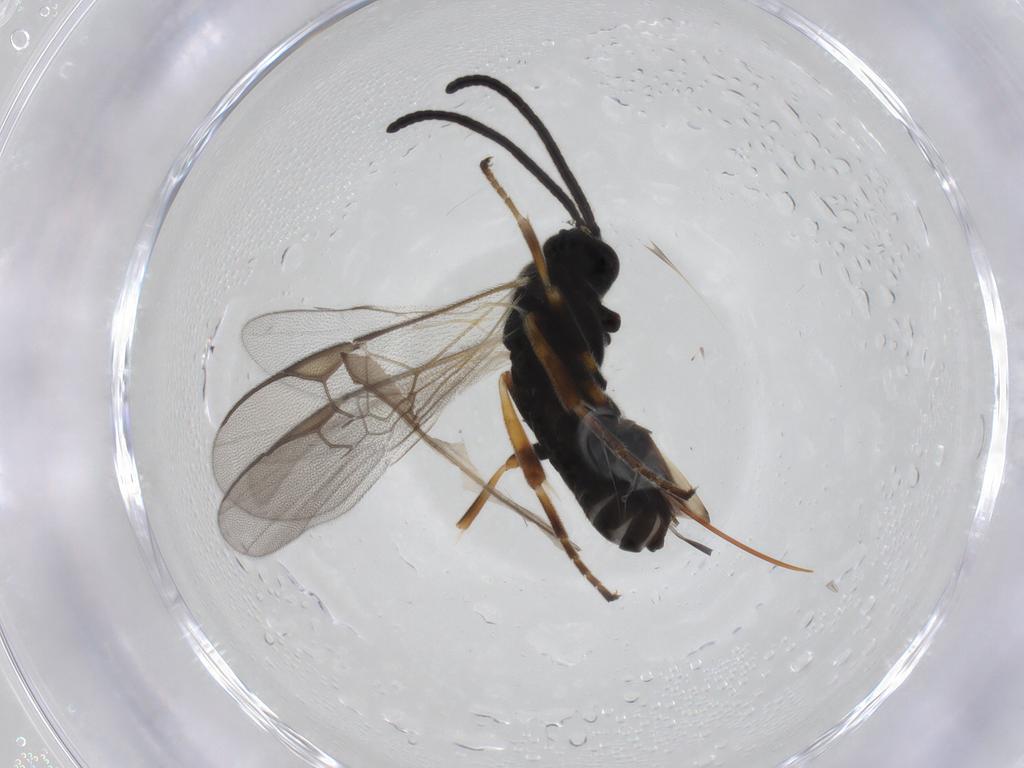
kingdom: Animalia
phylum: Arthropoda
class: Insecta
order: Hymenoptera
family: Braconidae
